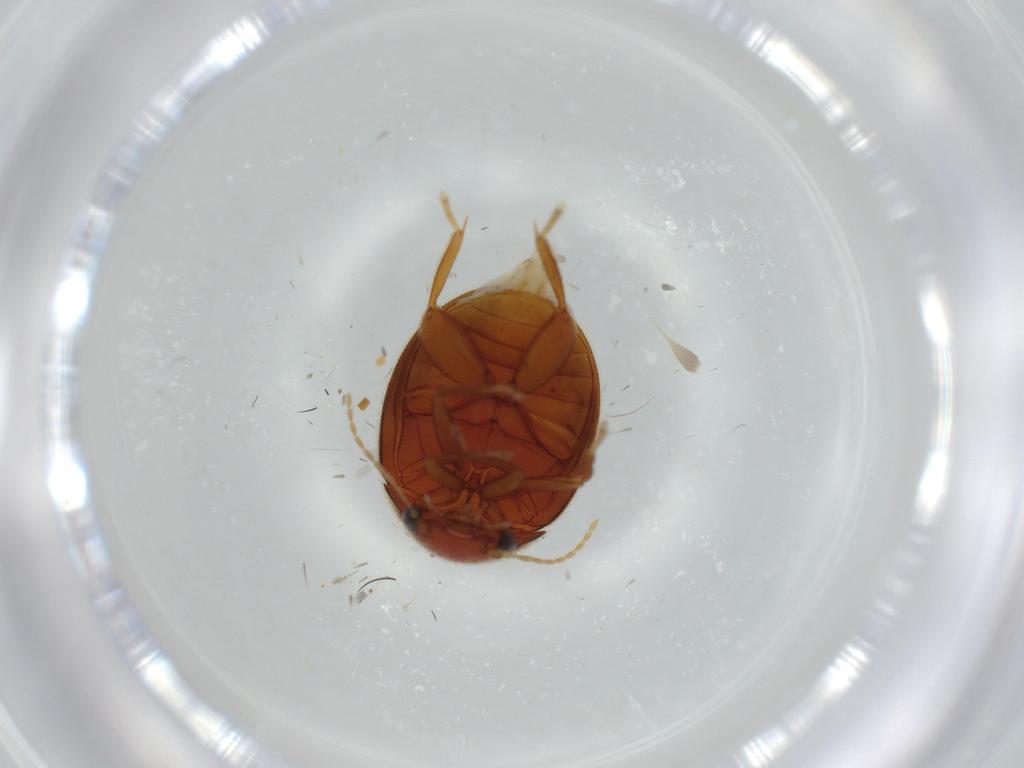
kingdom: Animalia
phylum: Arthropoda
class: Insecta
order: Coleoptera
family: Scirtidae
